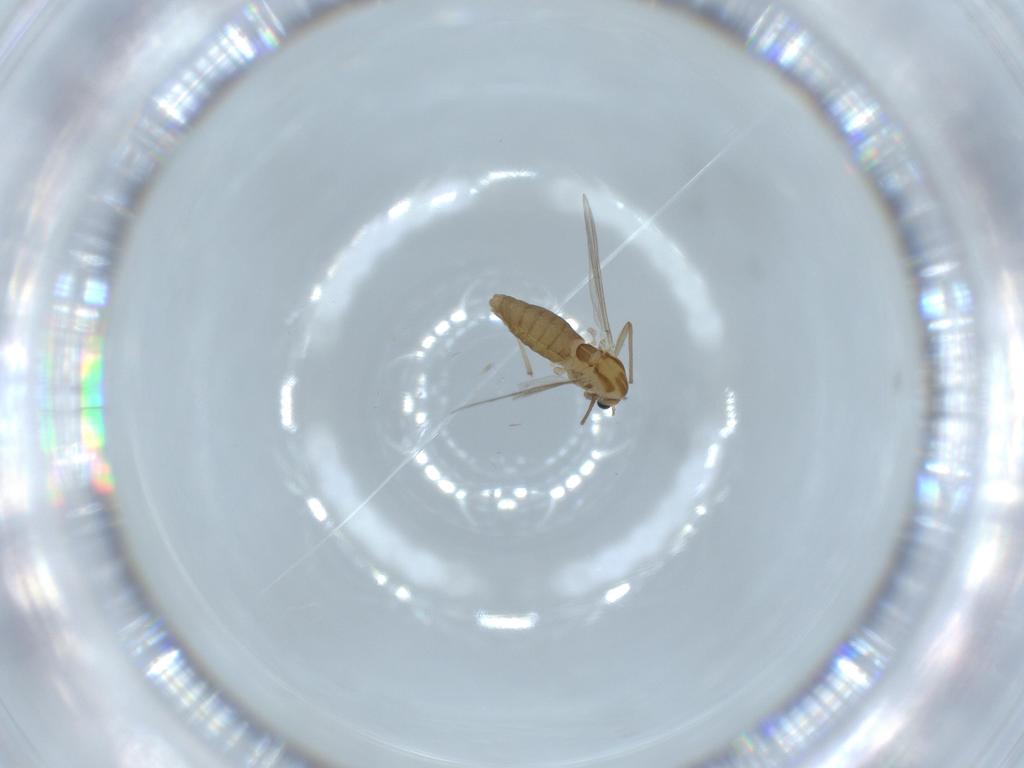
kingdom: Animalia
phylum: Arthropoda
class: Insecta
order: Diptera
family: Chironomidae
